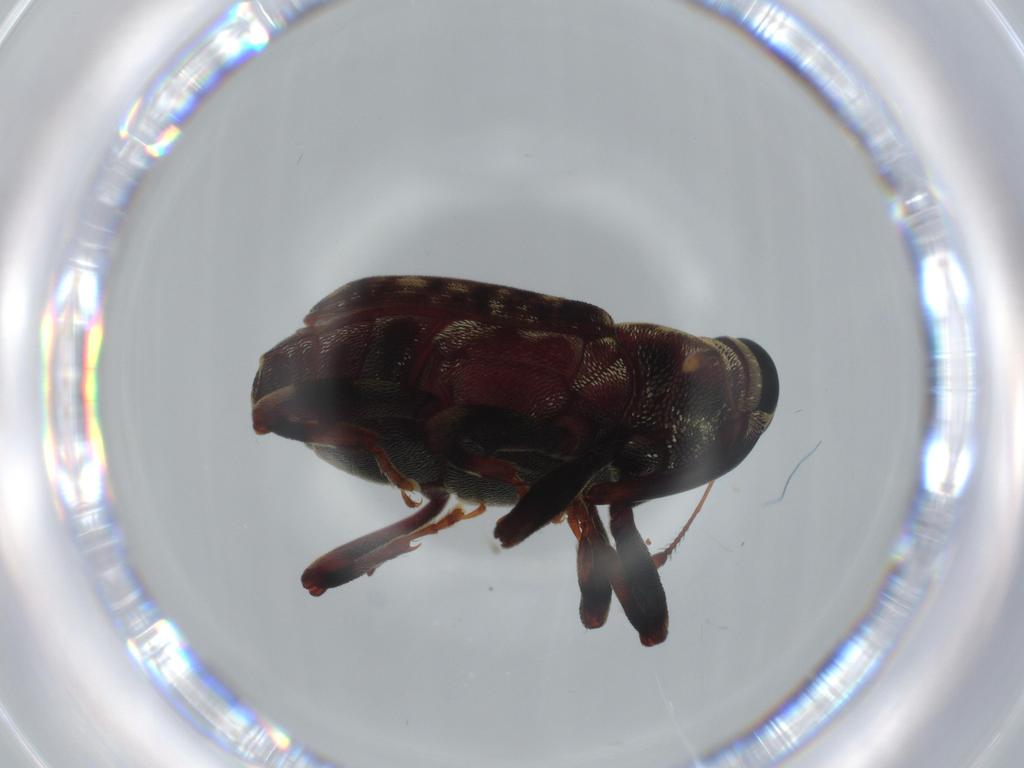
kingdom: Animalia
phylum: Arthropoda
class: Insecta
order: Coleoptera
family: Curculionidae
